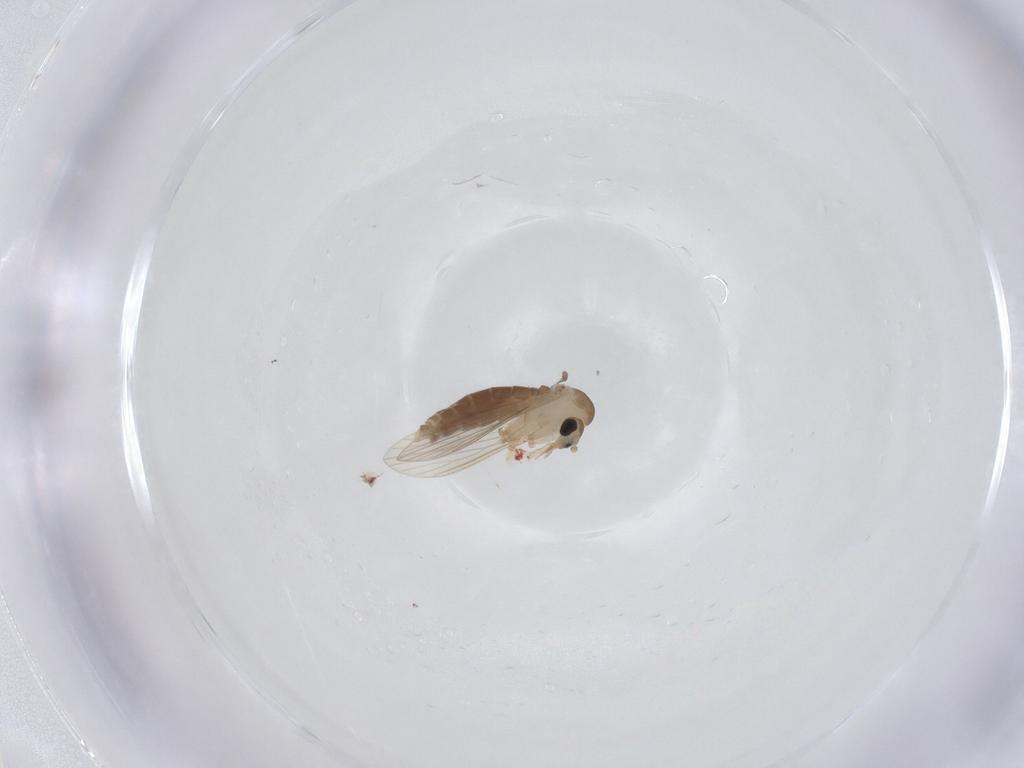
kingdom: Animalia
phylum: Arthropoda
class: Insecta
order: Diptera
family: Psychodidae
